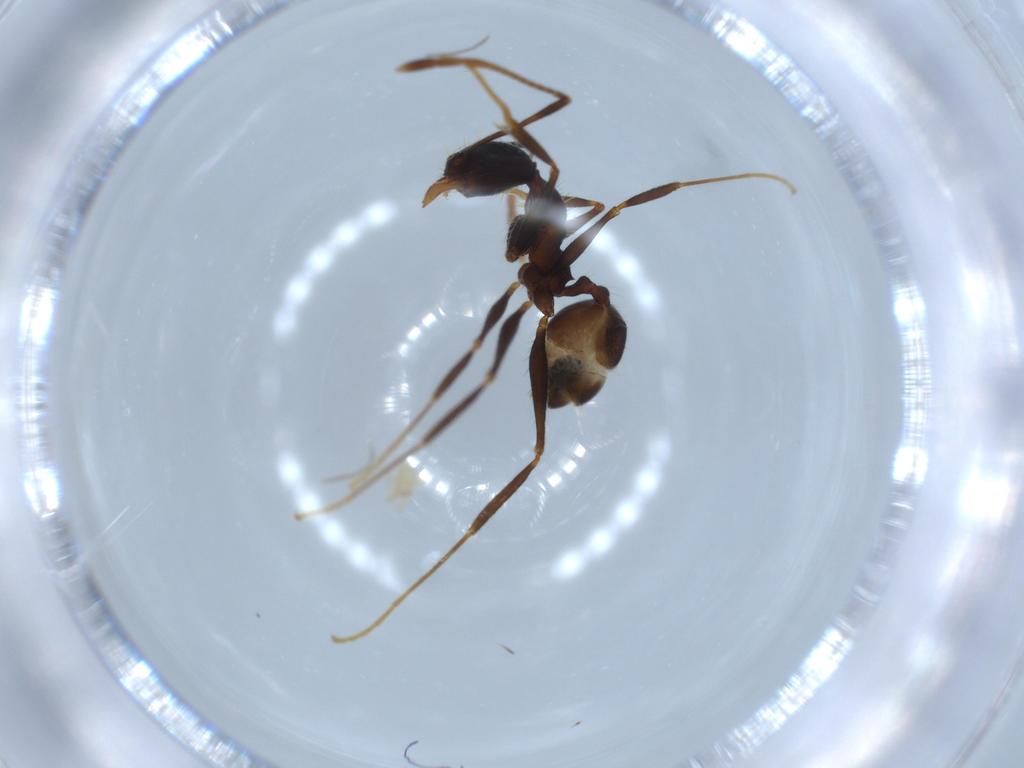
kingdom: Animalia
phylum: Arthropoda
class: Insecta
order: Hymenoptera
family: Formicidae
